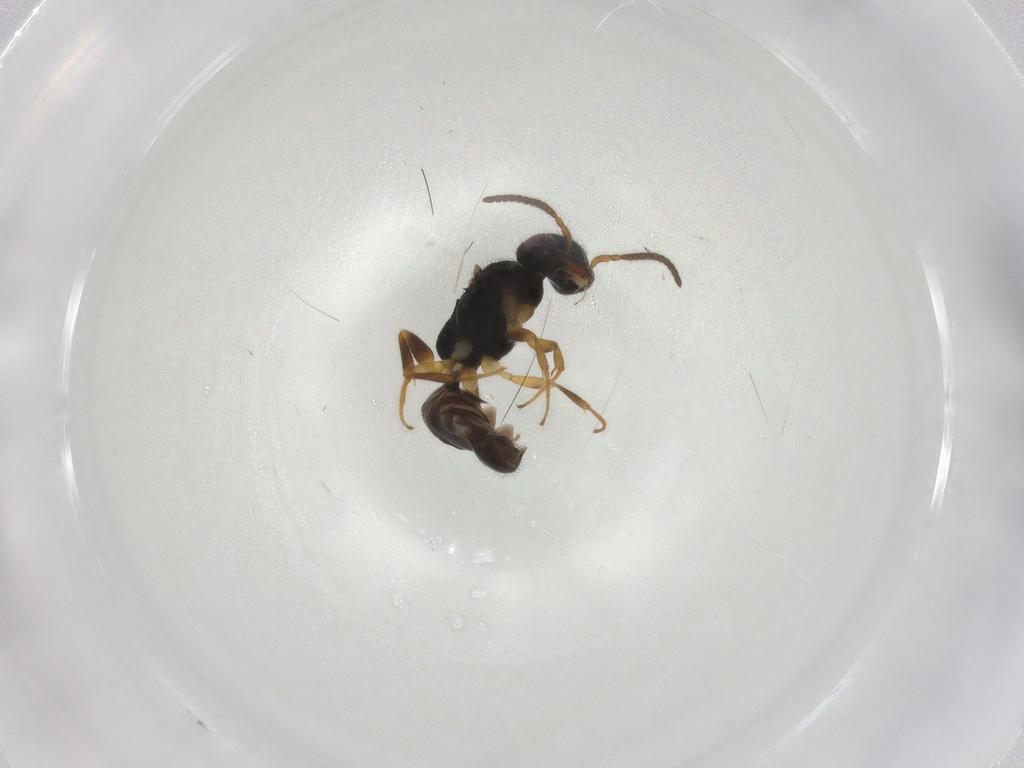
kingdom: Animalia
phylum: Arthropoda
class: Insecta
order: Hymenoptera
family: Bethylidae
